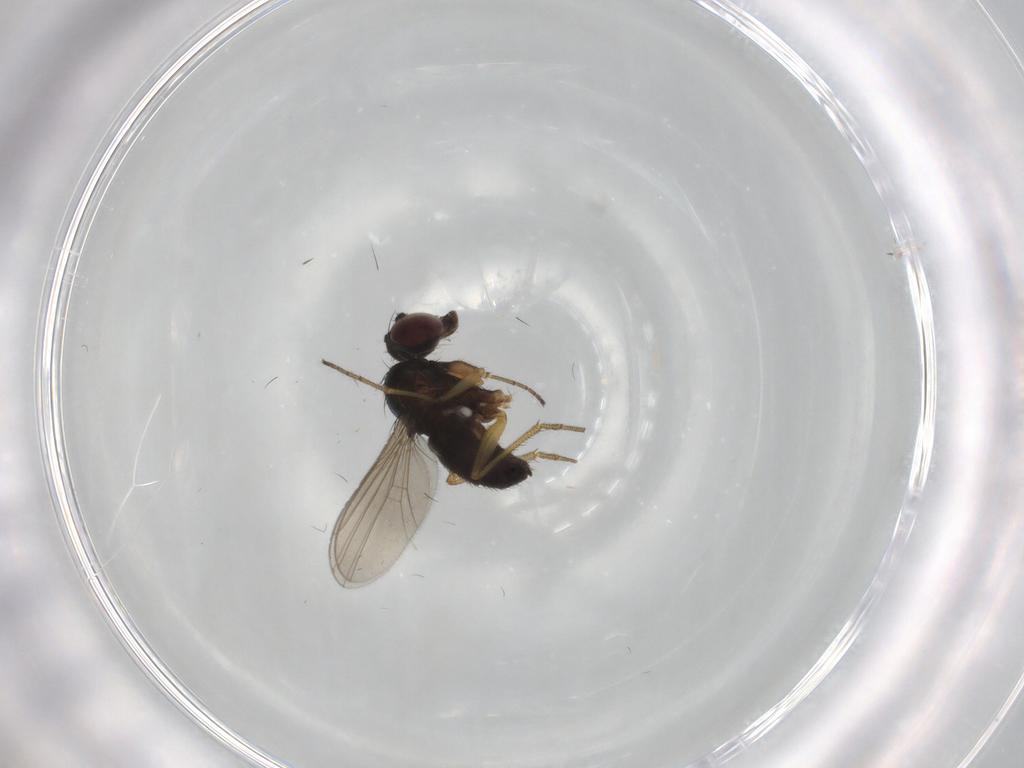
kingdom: Animalia
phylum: Arthropoda
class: Insecta
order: Diptera
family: Dolichopodidae
